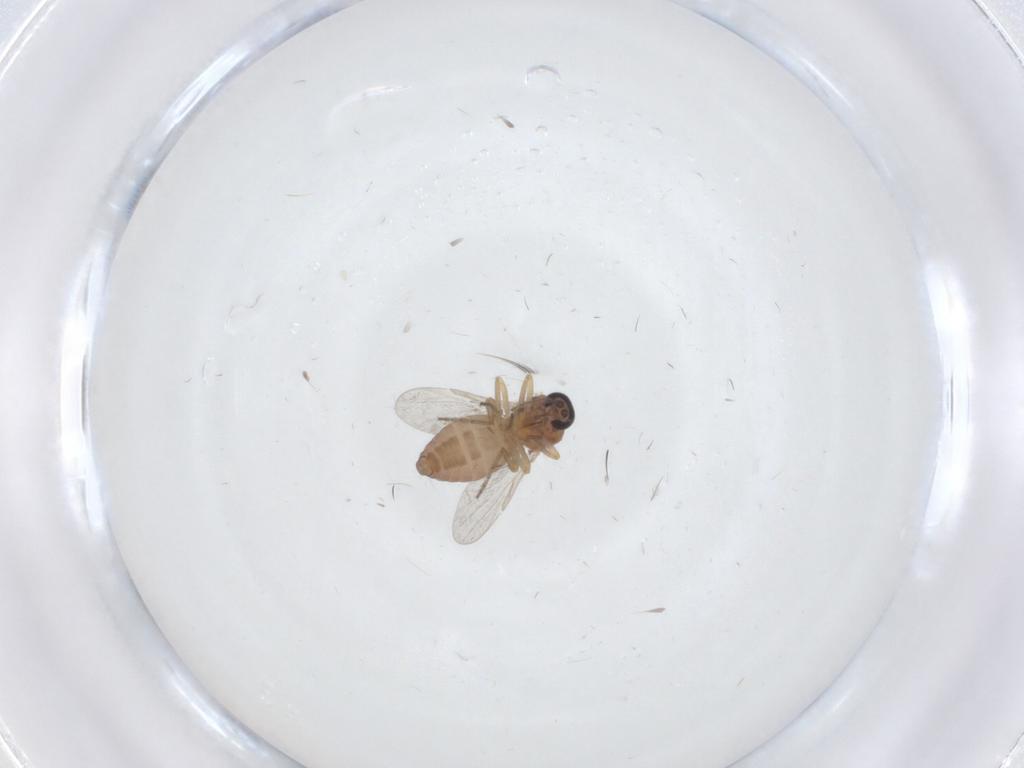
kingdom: Animalia
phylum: Arthropoda
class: Insecta
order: Diptera
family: Ceratopogonidae
